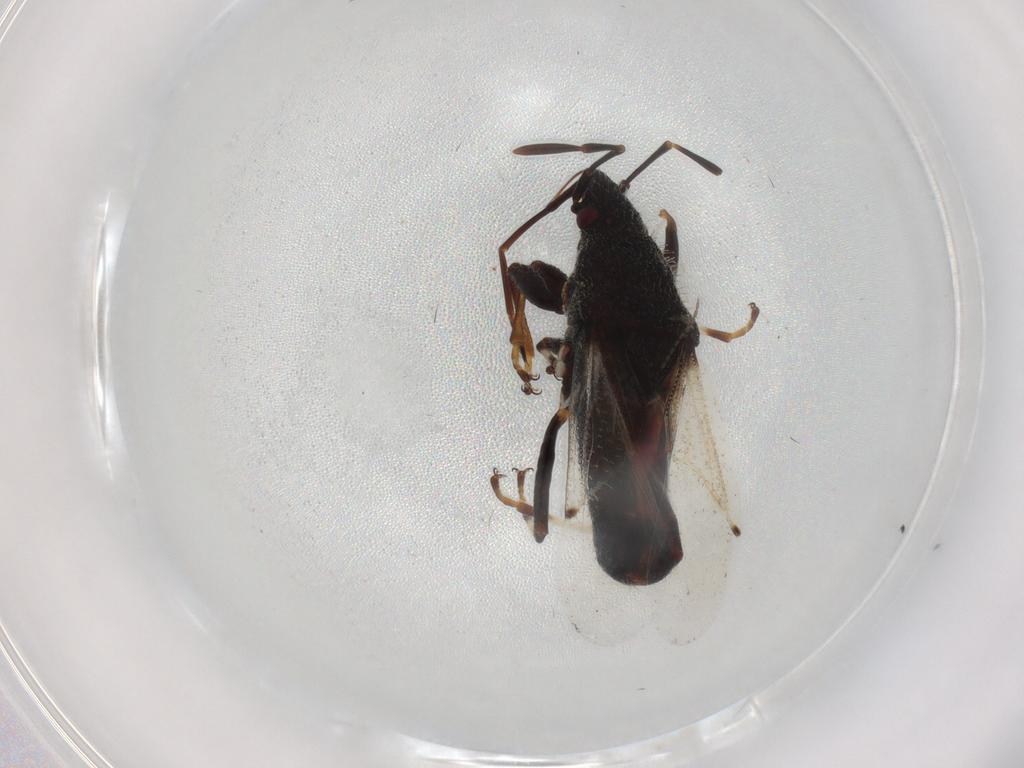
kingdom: Animalia
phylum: Arthropoda
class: Insecta
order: Hemiptera
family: Oxycarenidae
